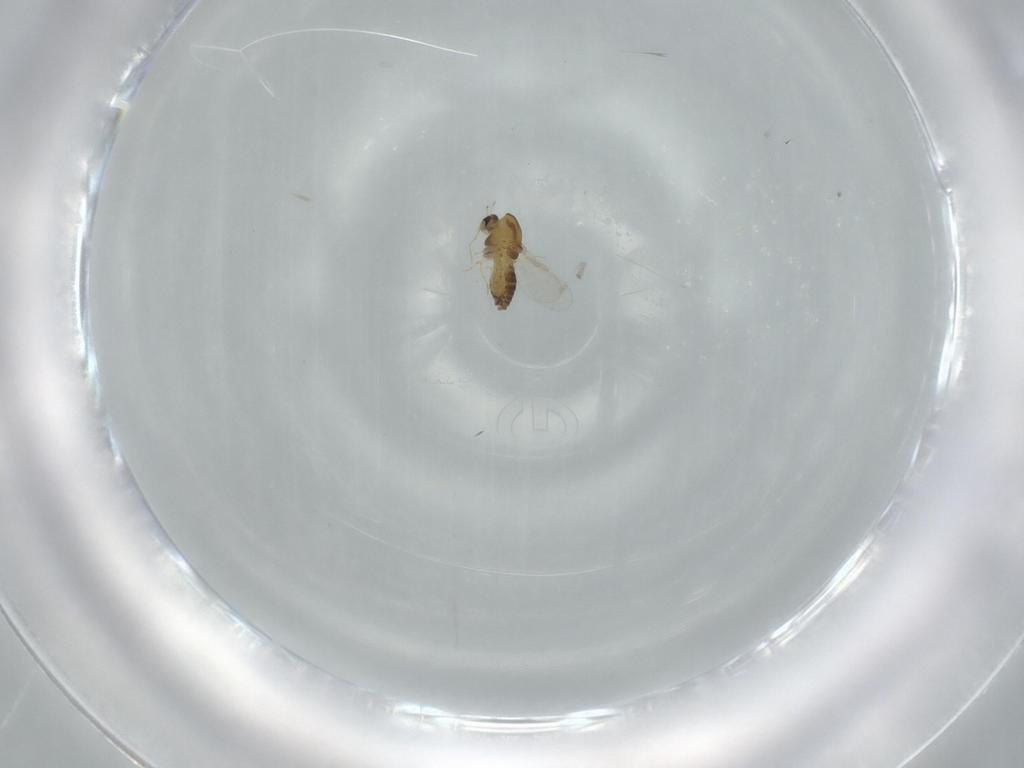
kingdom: Animalia
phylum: Arthropoda
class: Insecta
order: Diptera
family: Chironomidae
